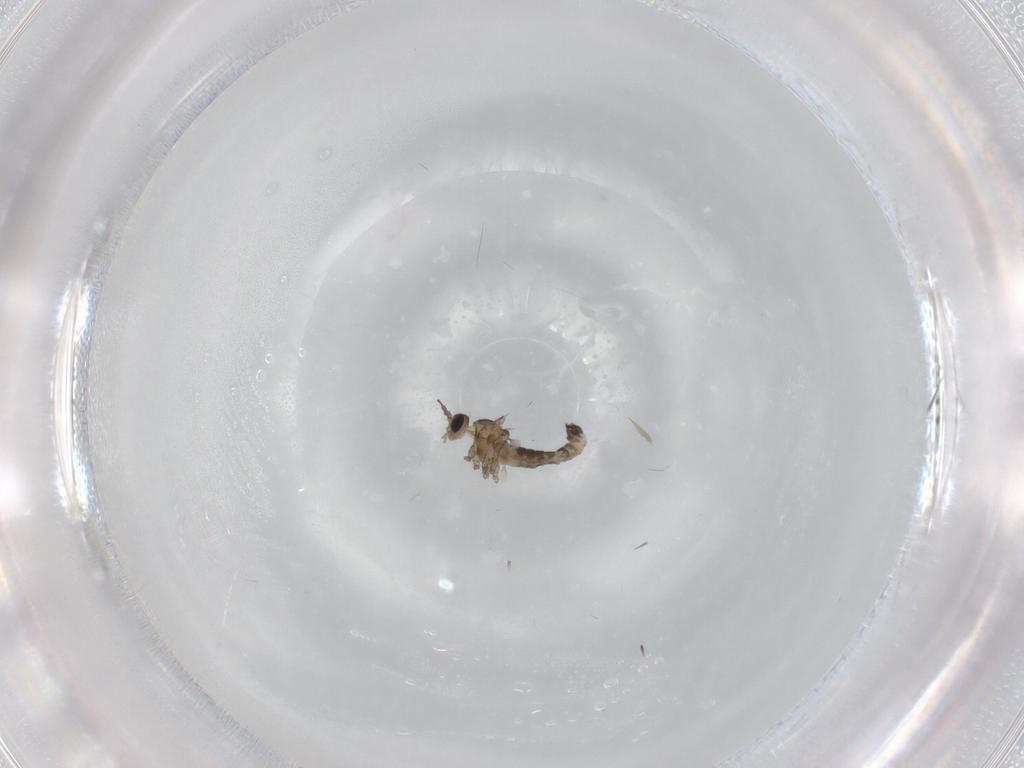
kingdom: Animalia
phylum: Arthropoda
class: Insecta
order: Diptera
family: Cecidomyiidae
